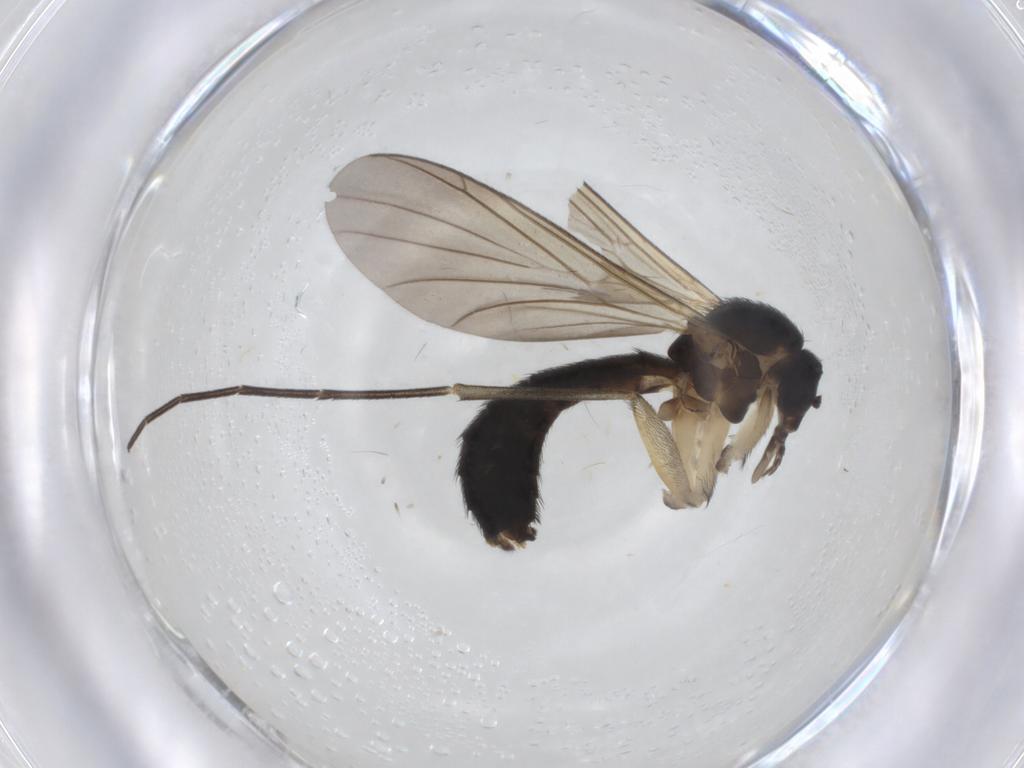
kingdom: Animalia
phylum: Arthropoda
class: Insecta
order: Diptera
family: Keroplatidae
